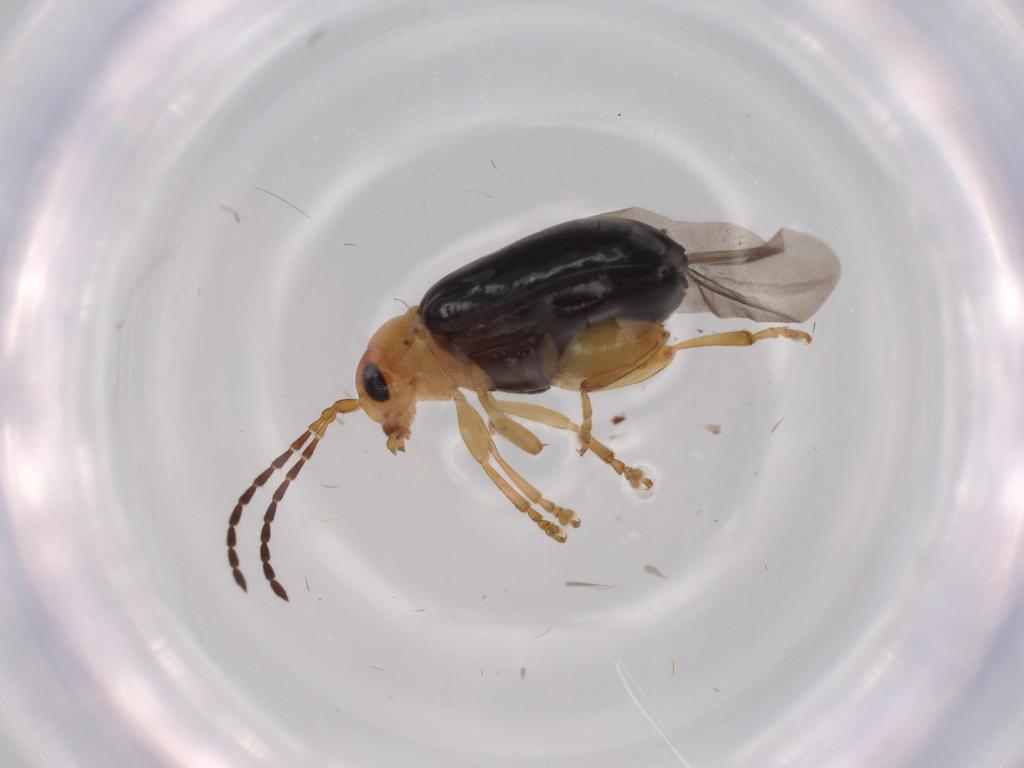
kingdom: Animalia
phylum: Arthropoda
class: Insecta
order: Coleoptera
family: Chrysomelidae
